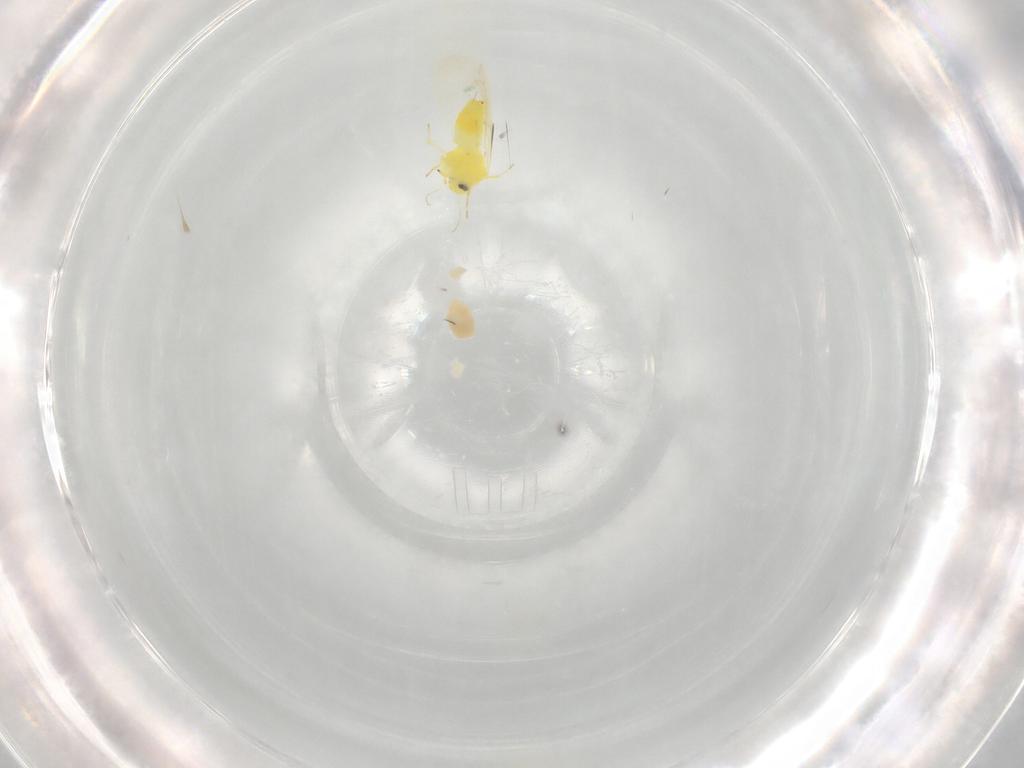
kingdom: Animalia
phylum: Arthropoda
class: Insecta
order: Hemiptera
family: Aleyrodidae
